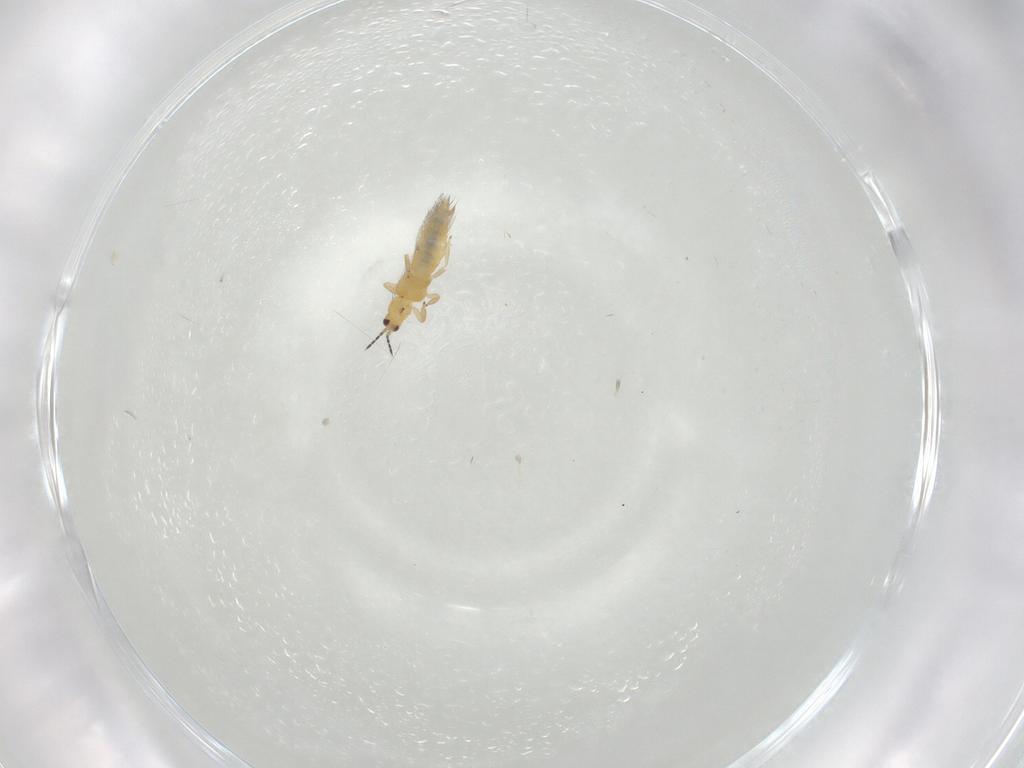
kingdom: Animalia
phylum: Arthropoda
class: Insecta
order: Thysanoptera
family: Thripidae
